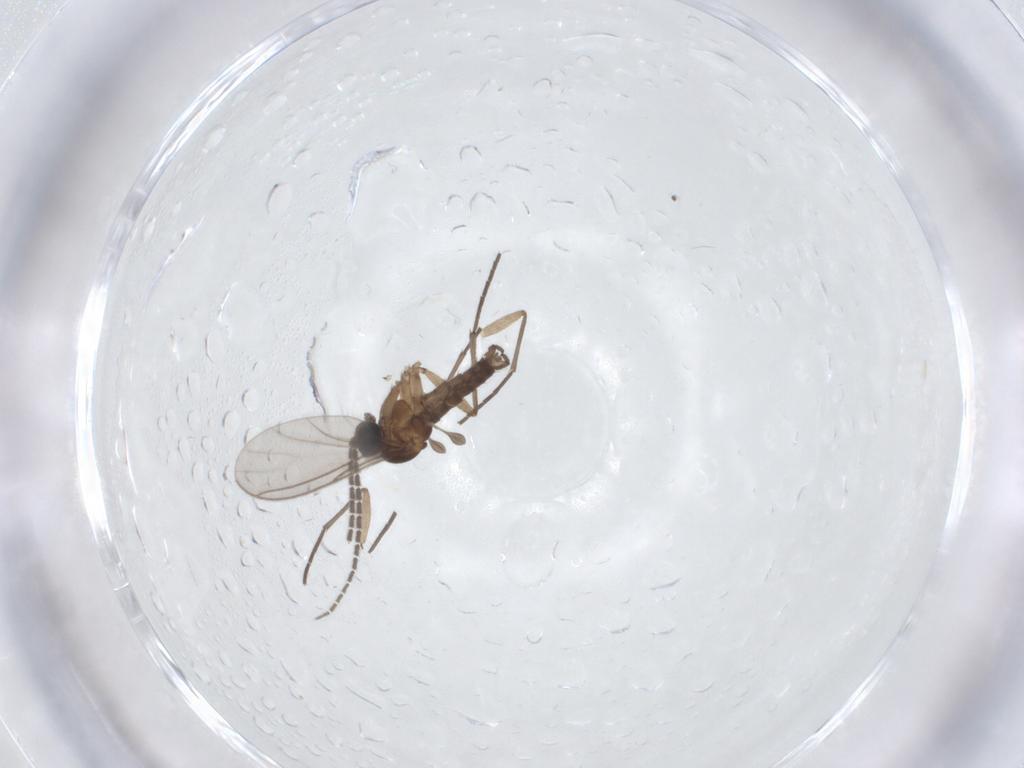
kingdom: Animalia
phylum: Arthropoda
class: Insecta
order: Diptera
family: Sciaridae
